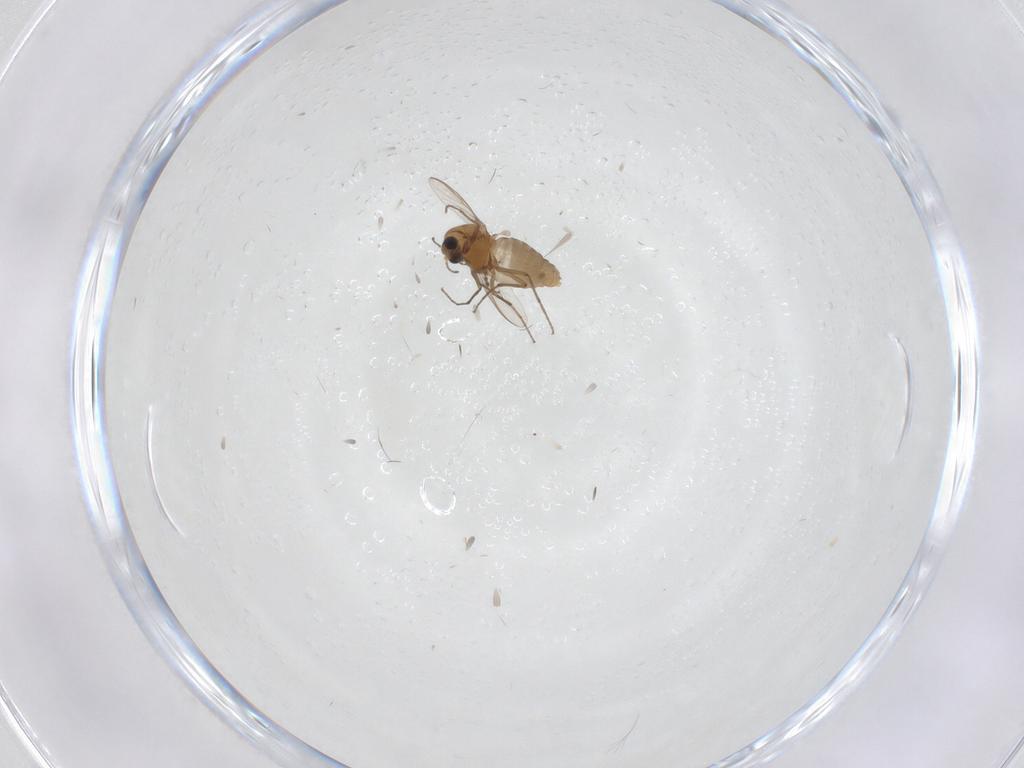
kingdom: Animalia
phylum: Arthropoda
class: Insecta
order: Diptera
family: Chironomidae
